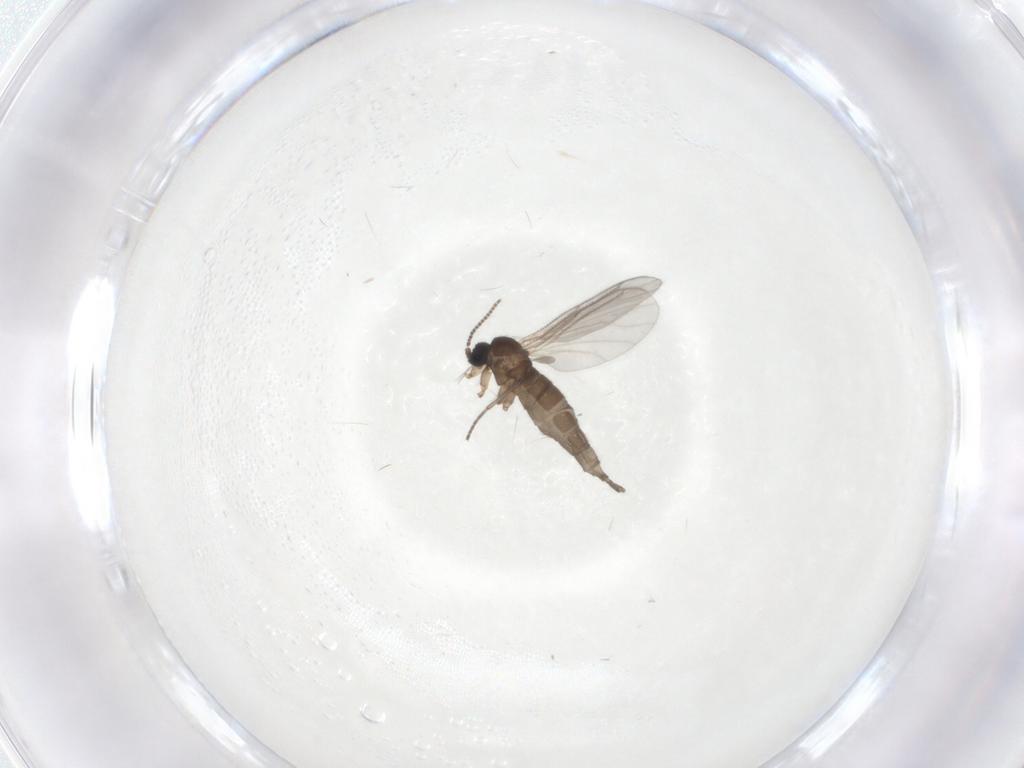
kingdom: Animalia
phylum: Arthropoda
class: Insecta
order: Diptera
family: Sciaridae
